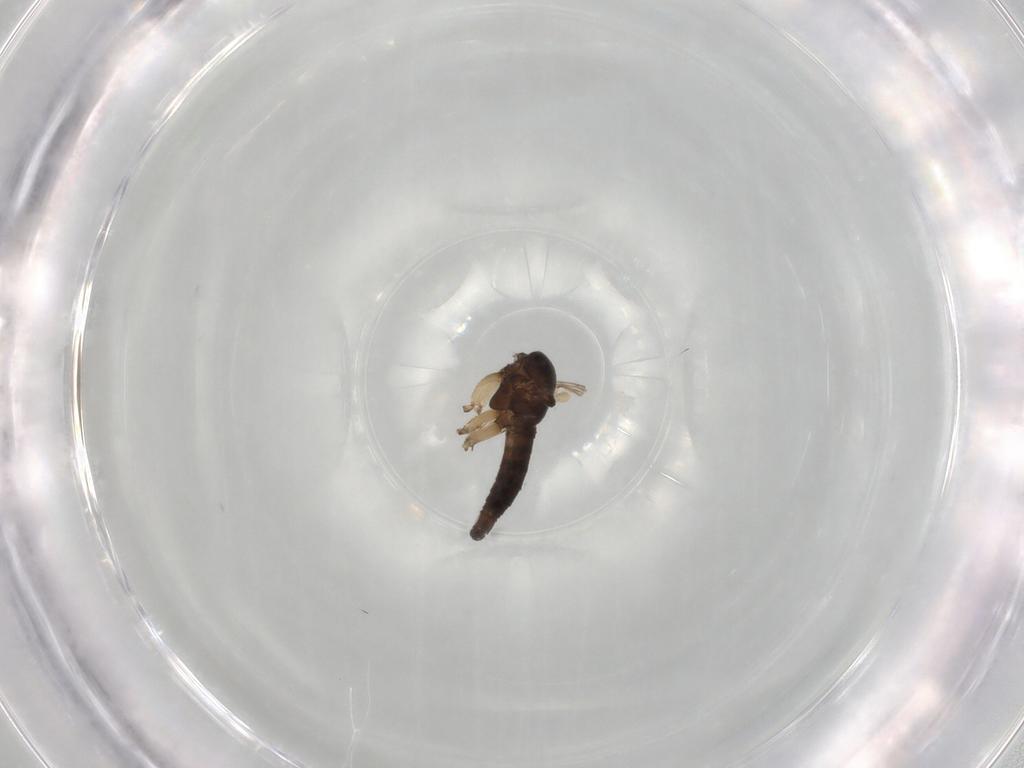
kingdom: Animalia
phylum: Arthropoda
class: Insecta
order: Diptera
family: Sciaridae
